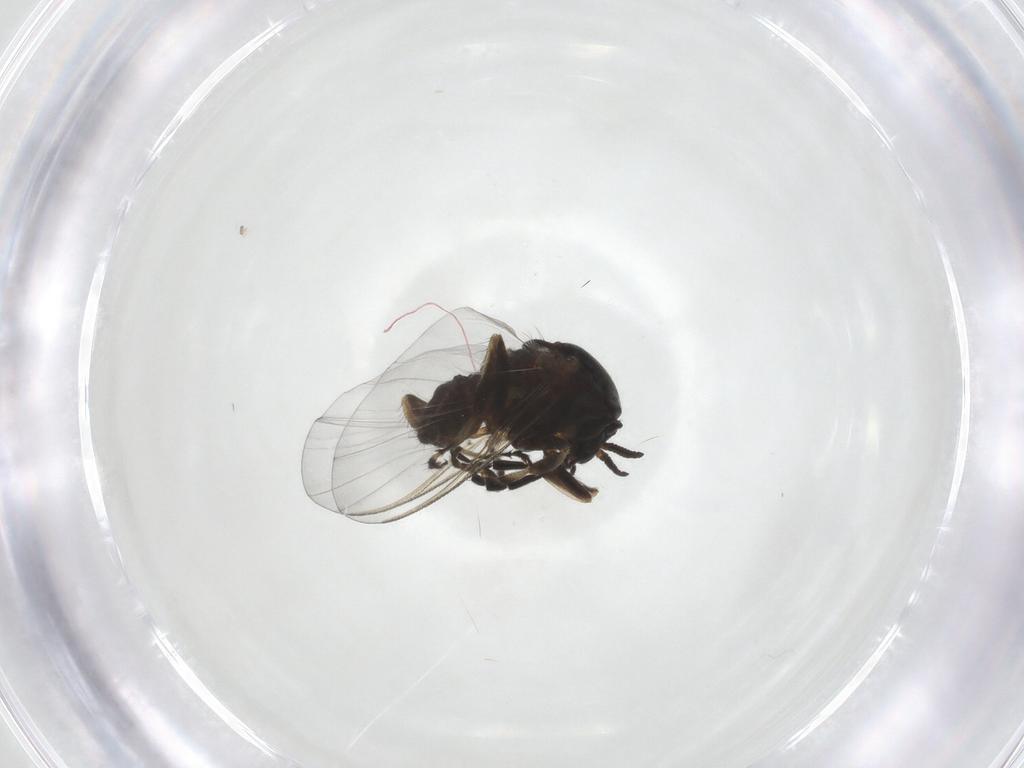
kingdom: Animalia
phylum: Arthropoda
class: Insecta
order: Diptera
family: Simuliidae
